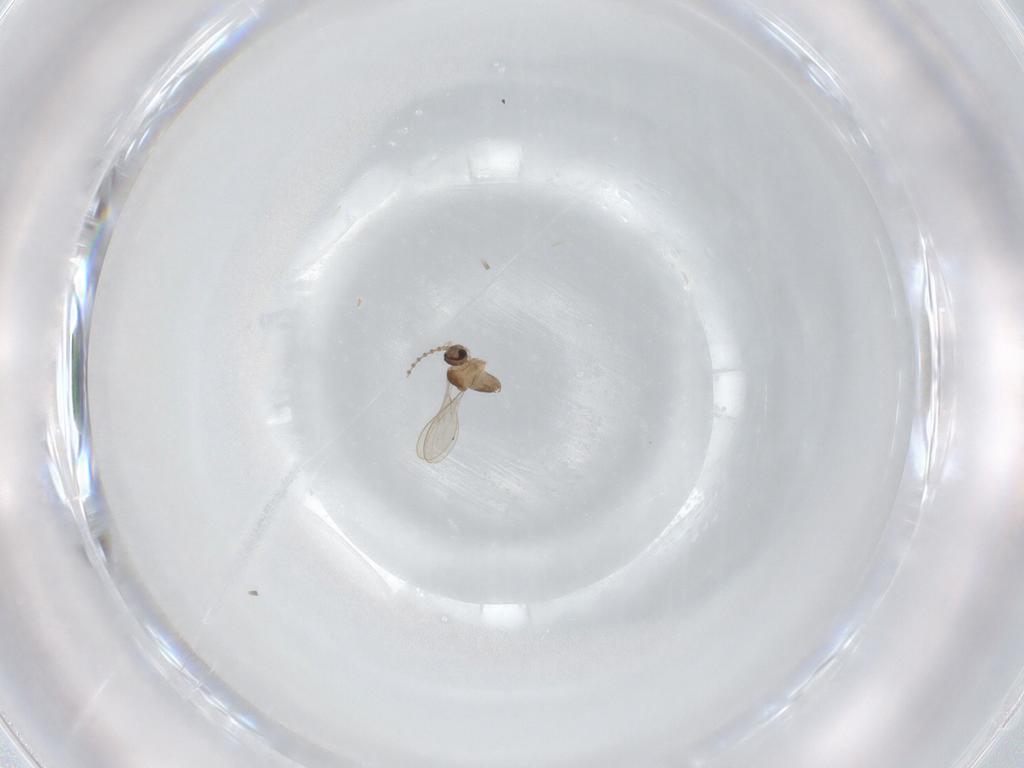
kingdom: Animalia
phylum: Arthropoda
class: Insecta
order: Diptera
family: Cecidomyiidae
